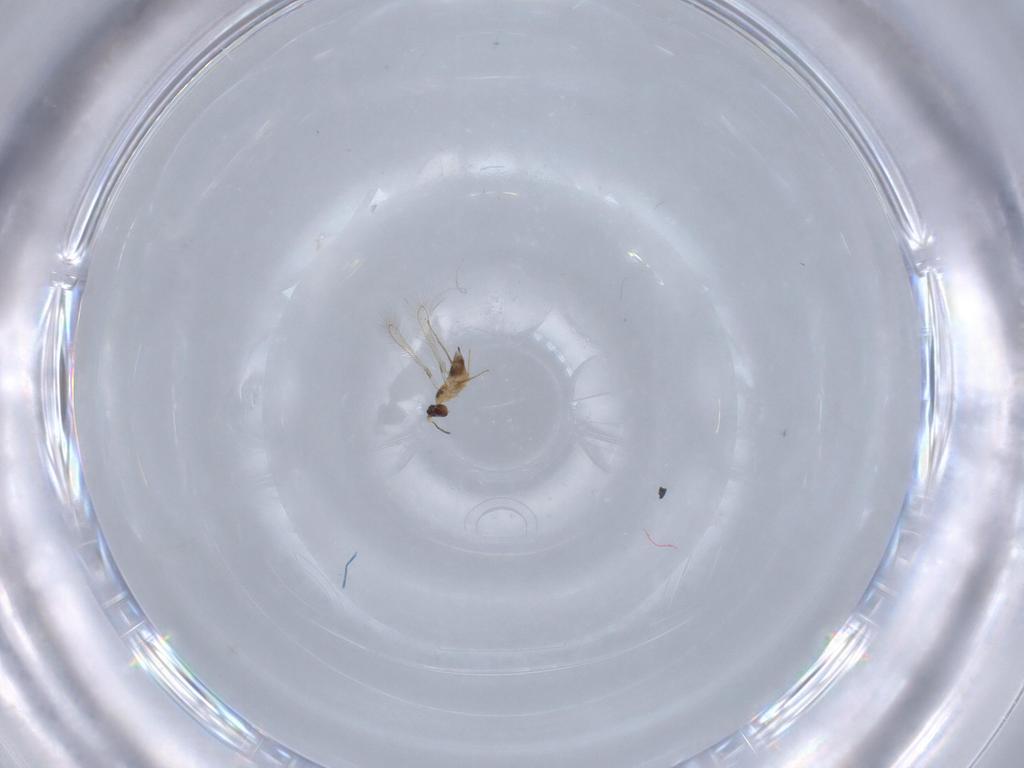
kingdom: Animalia
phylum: Arthropoda
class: Insecta
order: Hymenoptera
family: Mymaridae
